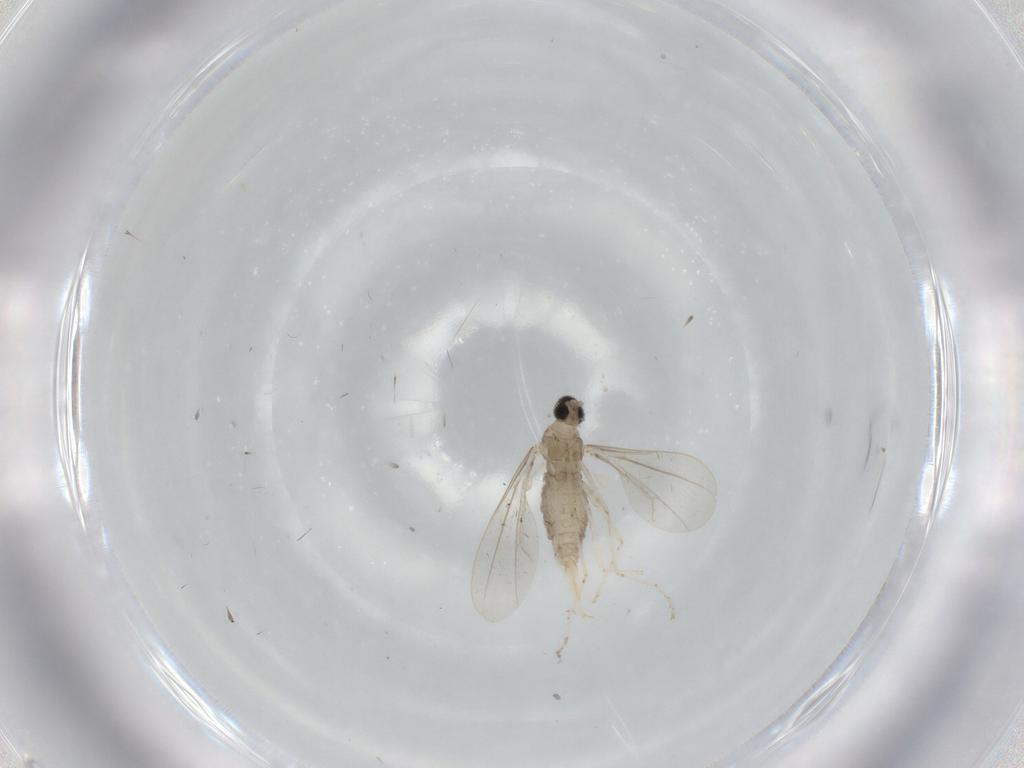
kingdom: Animalia
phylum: Arthropoda
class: Insecta
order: Diptera
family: Cecidomyiidae
